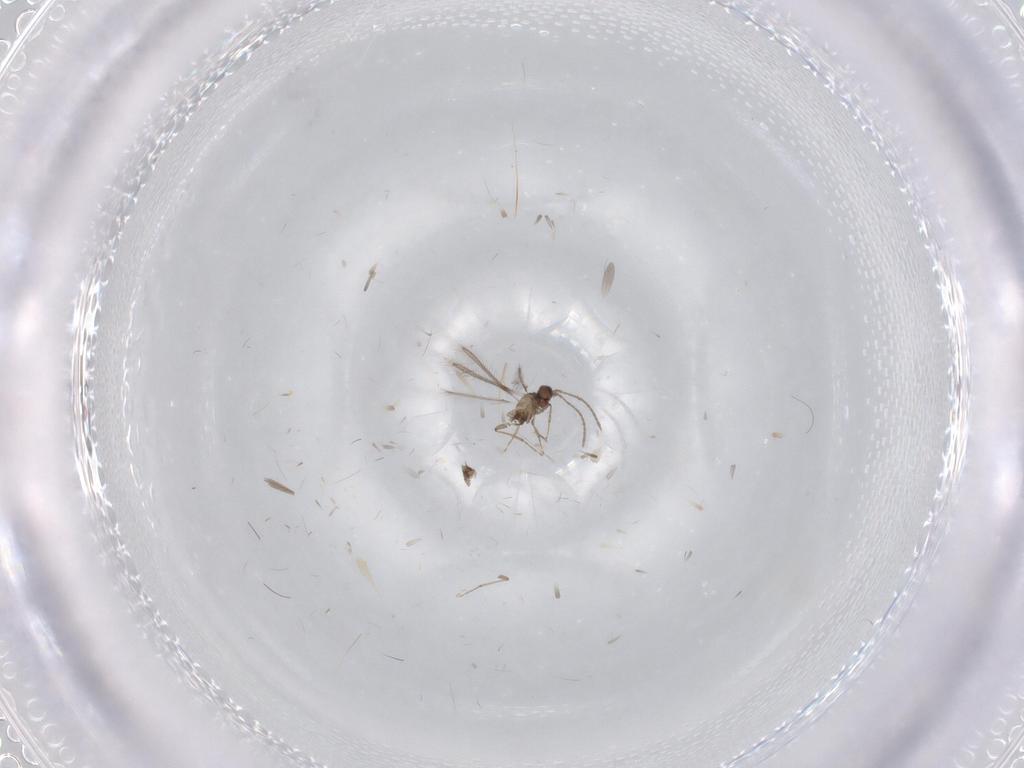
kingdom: Animalia
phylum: Arthropoda
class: Insecta
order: Hymenoptera
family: Mymaridae
